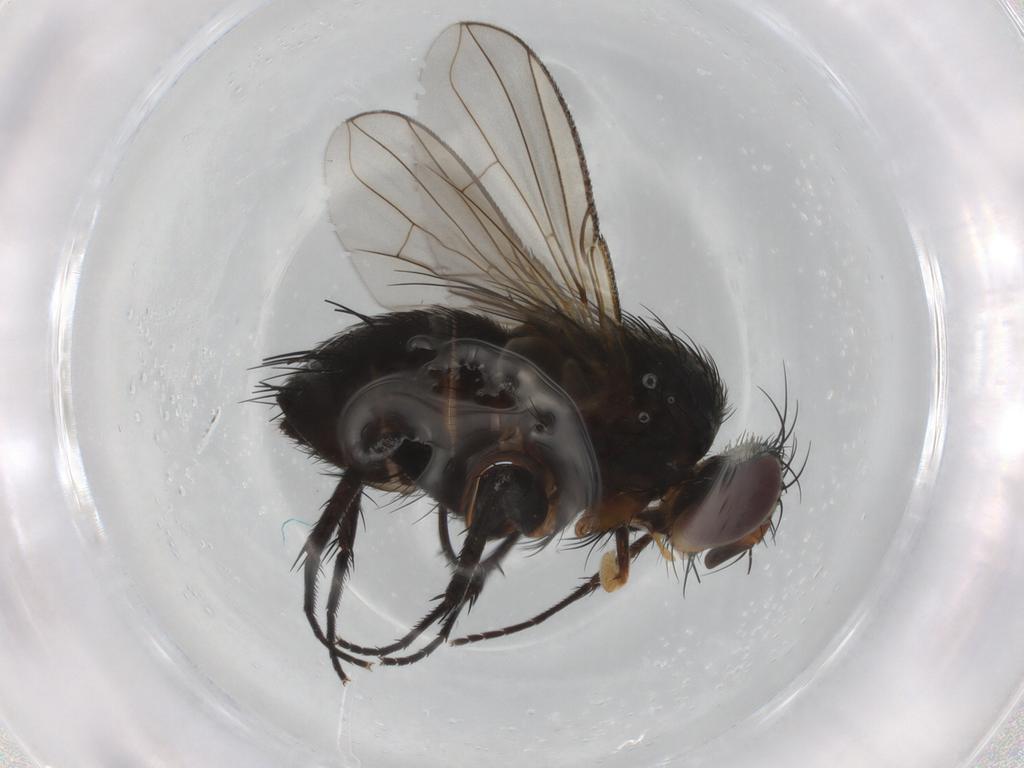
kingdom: Animalia
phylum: Arthropoda
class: Insecta
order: Diptera
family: Tachinidae
